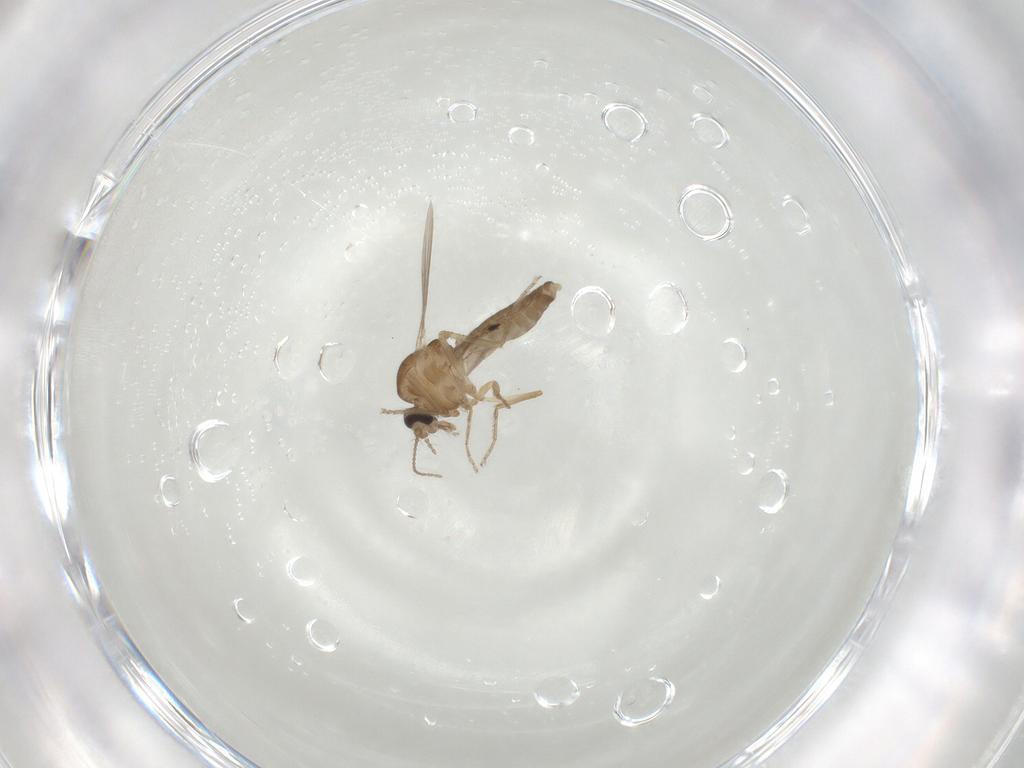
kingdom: Animalia
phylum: Arthropoda
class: Insecta
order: Diptera
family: Ceratopogonidae
